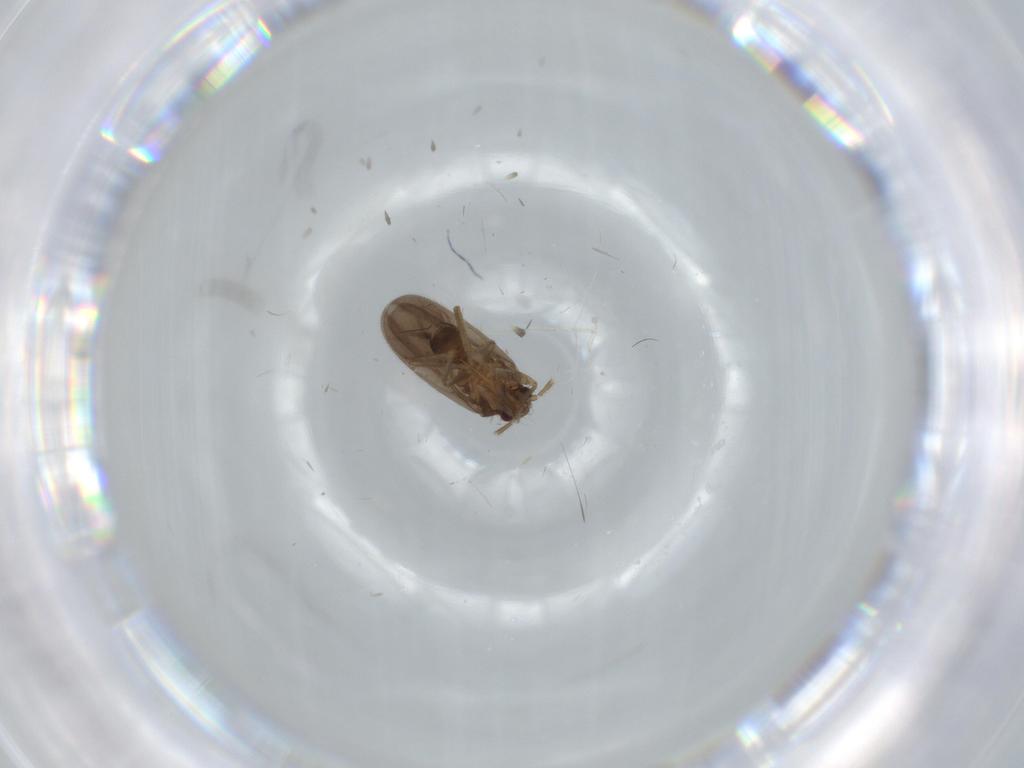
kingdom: Animalia
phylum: Arthropoda
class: Insecta
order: Hemiptera
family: Ceratocombidae
